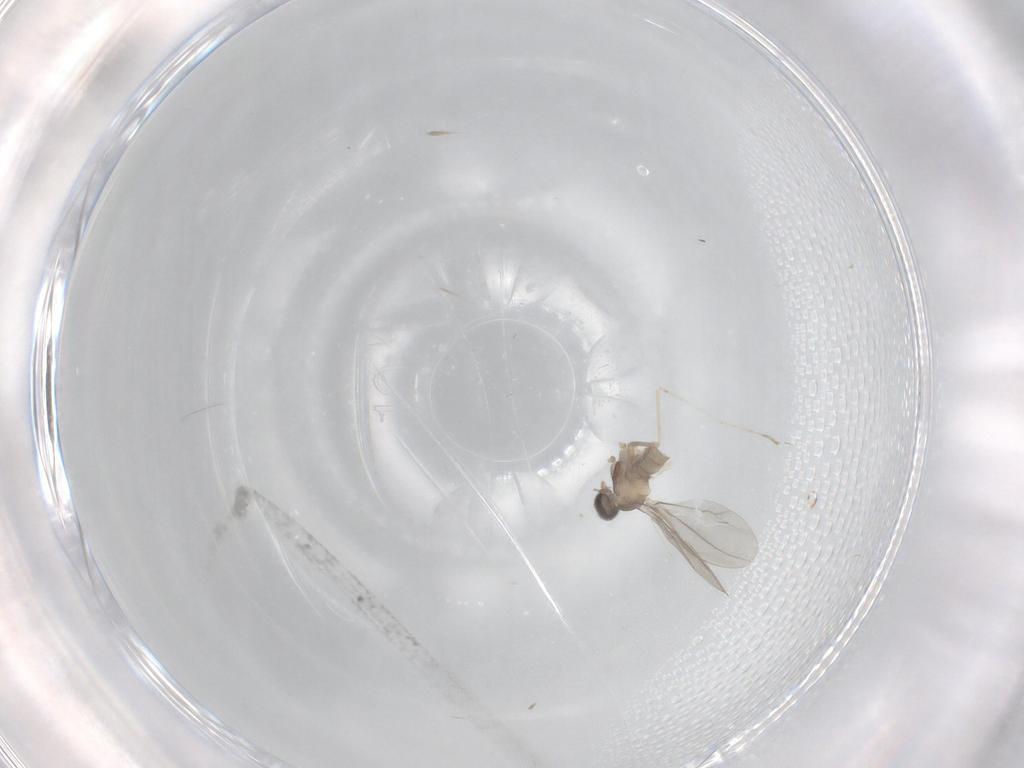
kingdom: Animalia
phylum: Arthropoda
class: Insecta
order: Diptera
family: Cecidomyiidae
